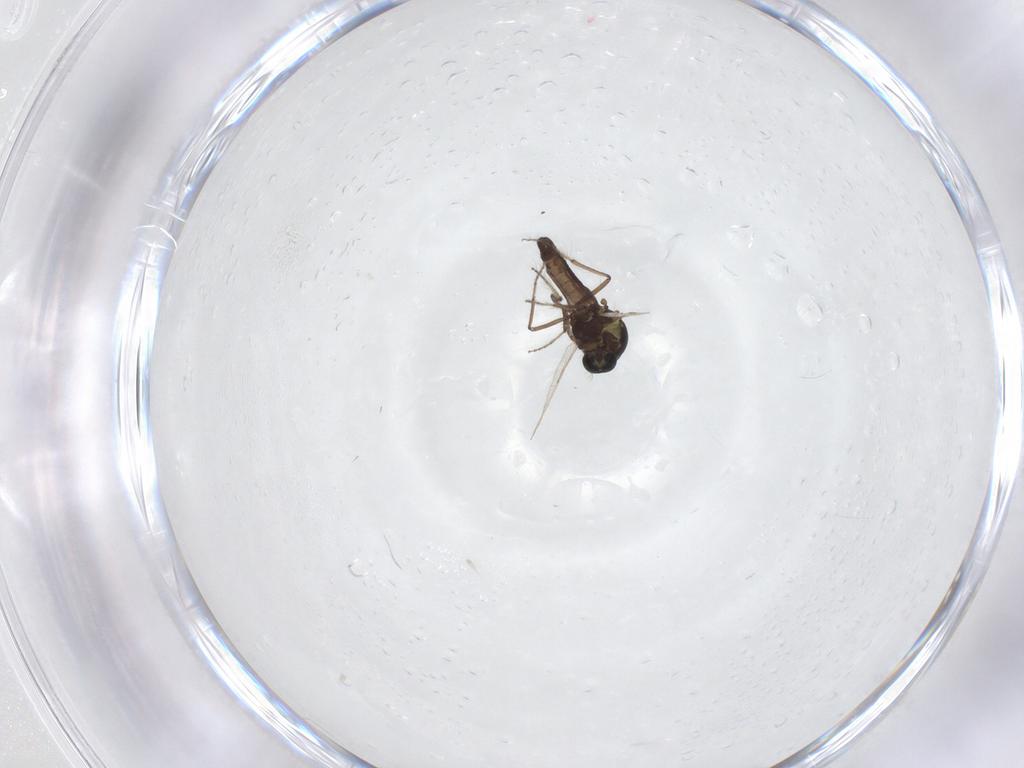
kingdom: Animalia
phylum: Arthropoda
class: Insecta
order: Diptera
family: Ceratopogonidae
